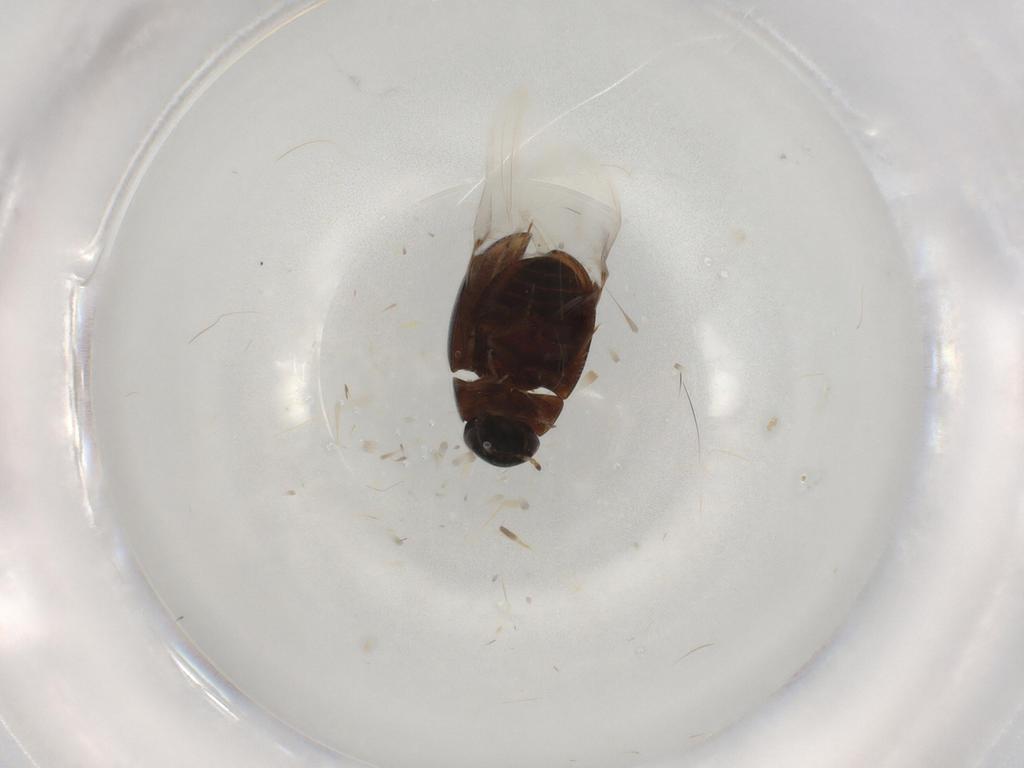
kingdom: Animalia
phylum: Arthropoda
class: Insecta
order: Coleoptera
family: Hydrophilidae
